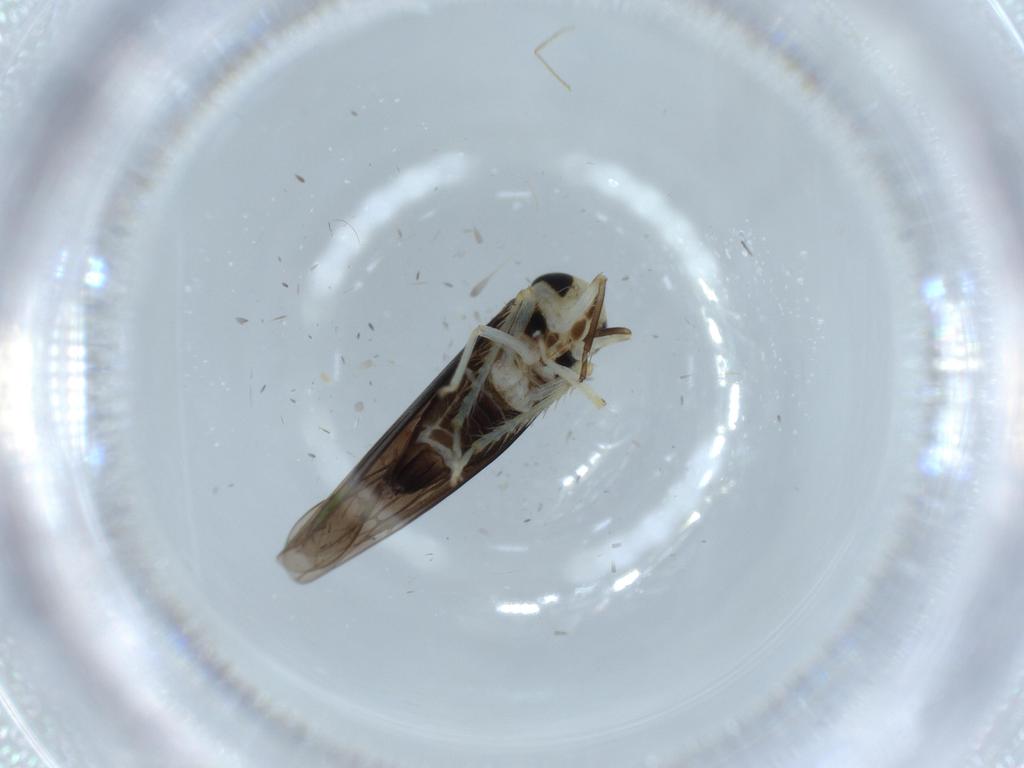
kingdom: Animalia
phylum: Arthropoda
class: Insecta
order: Hemiptera
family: Cicadellidae
